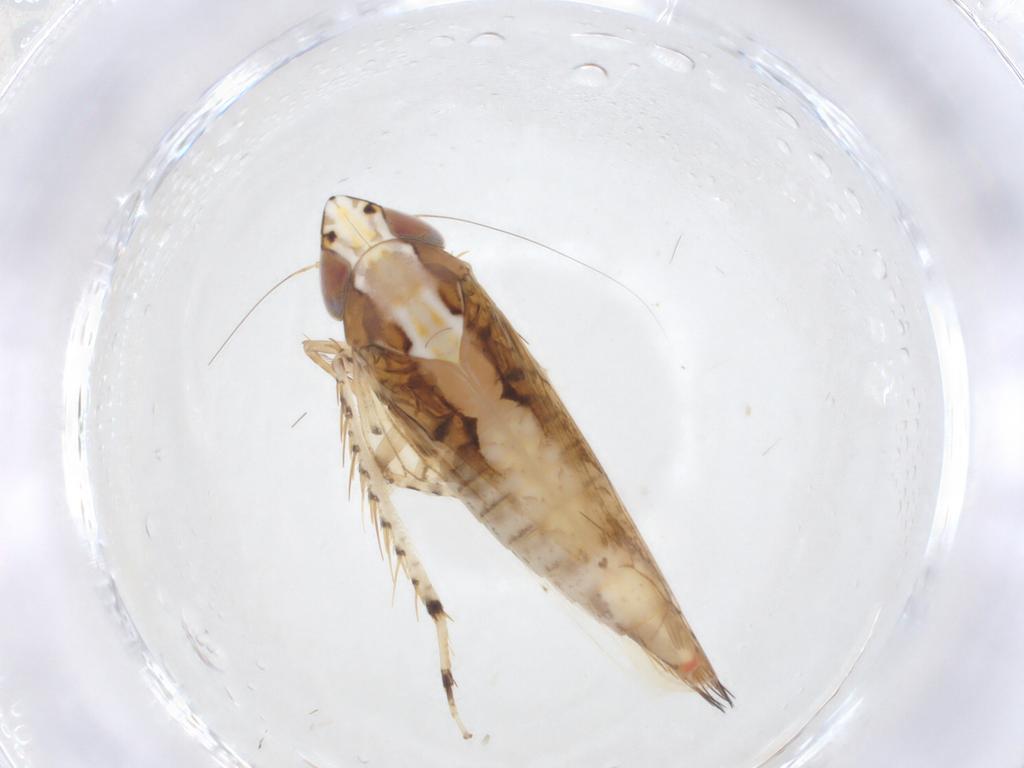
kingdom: Animalia
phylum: Arthropoda
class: Insecta
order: Hemiptera
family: Cicadellidae
